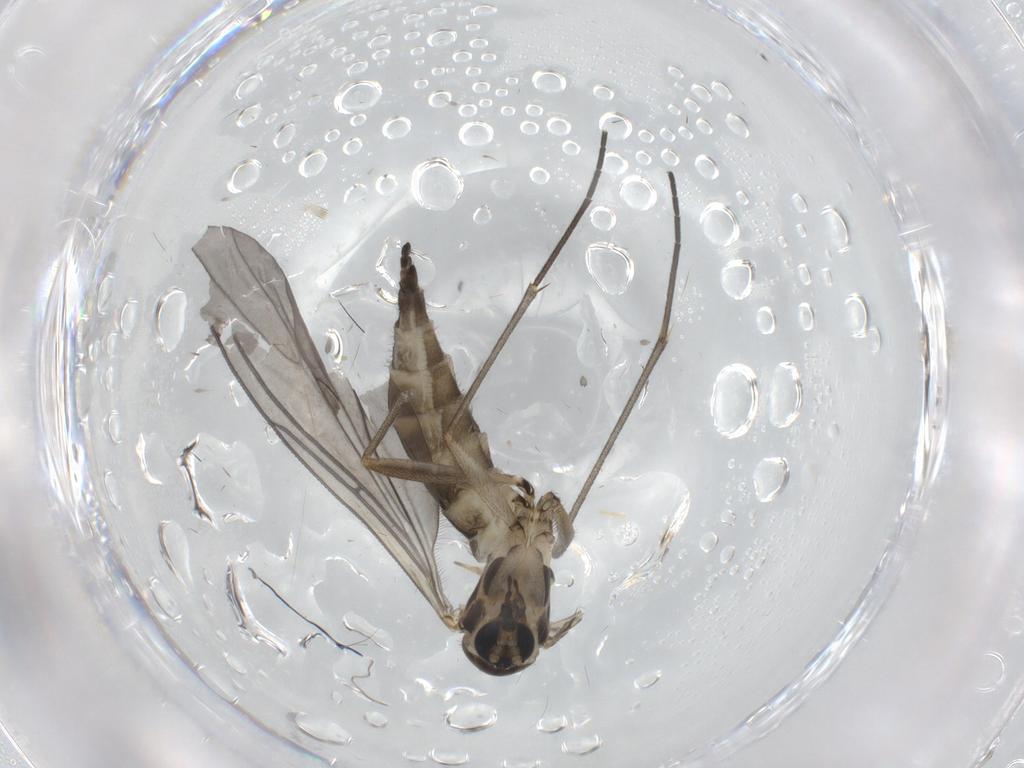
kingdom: Animalia
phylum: Arthropoda
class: Insecta
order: Diptera
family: Sciaridae
